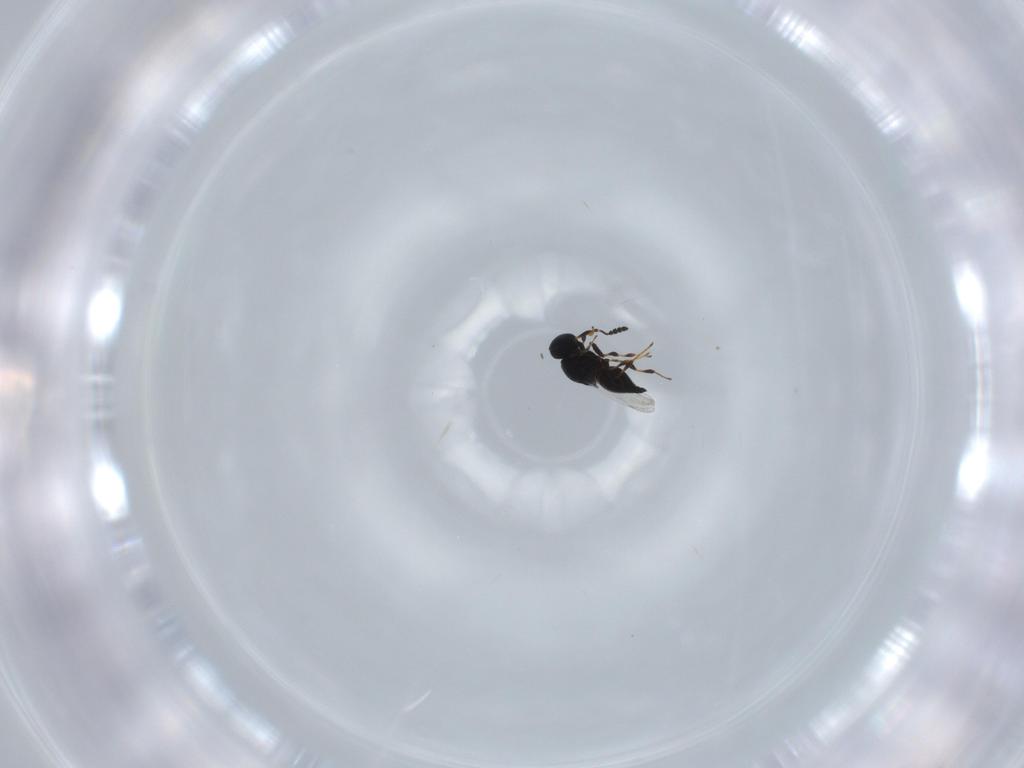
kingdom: Animalia
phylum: Arthropoda
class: Insecta
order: Hymenoptera
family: Platygastridae
